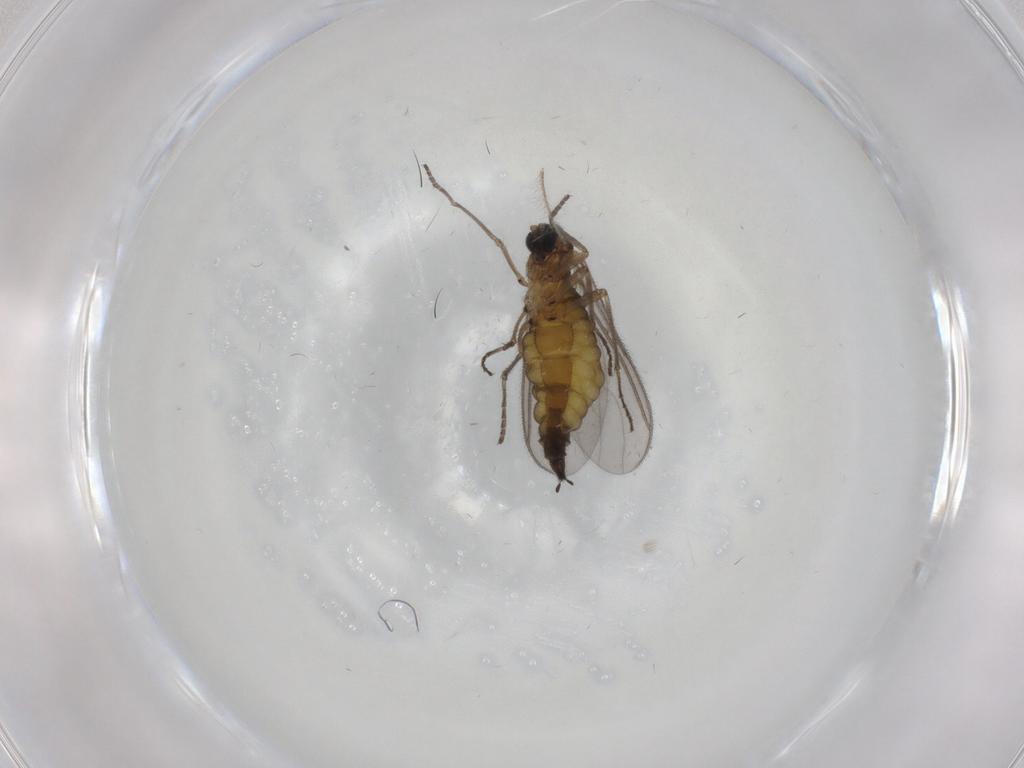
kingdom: Animalia
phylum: Arthropoda
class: Insecta
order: Diptera
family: Sciaridae
